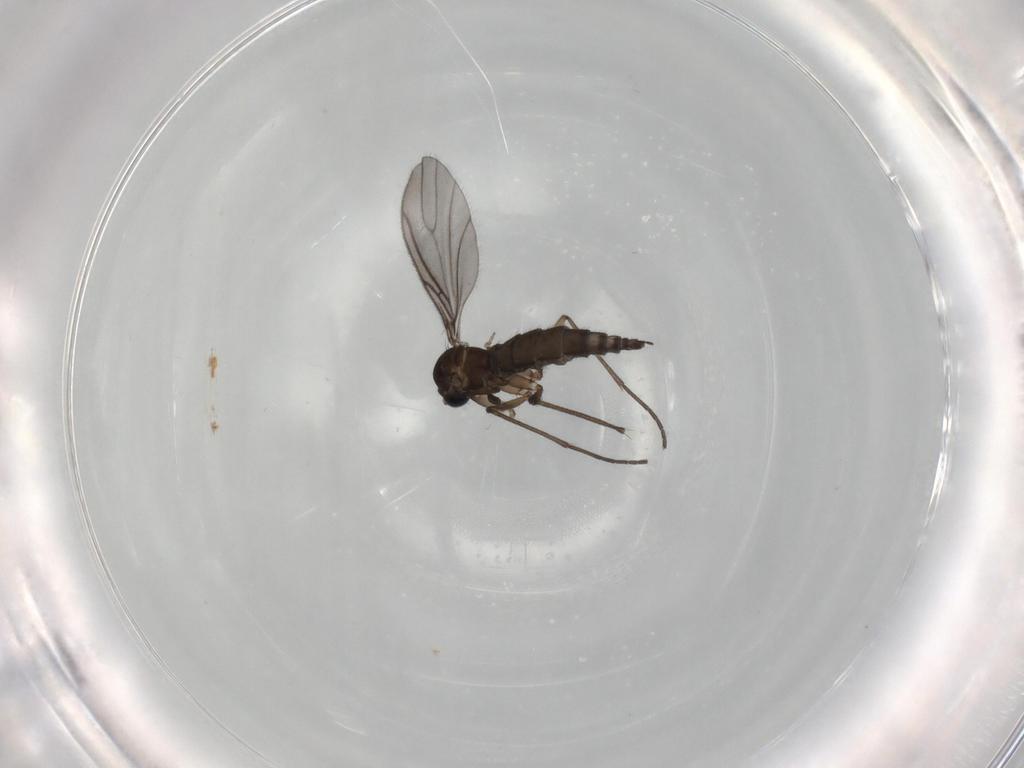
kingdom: Animalia
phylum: Arthropoda
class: Insecta
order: Diptera
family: Sciaridae
